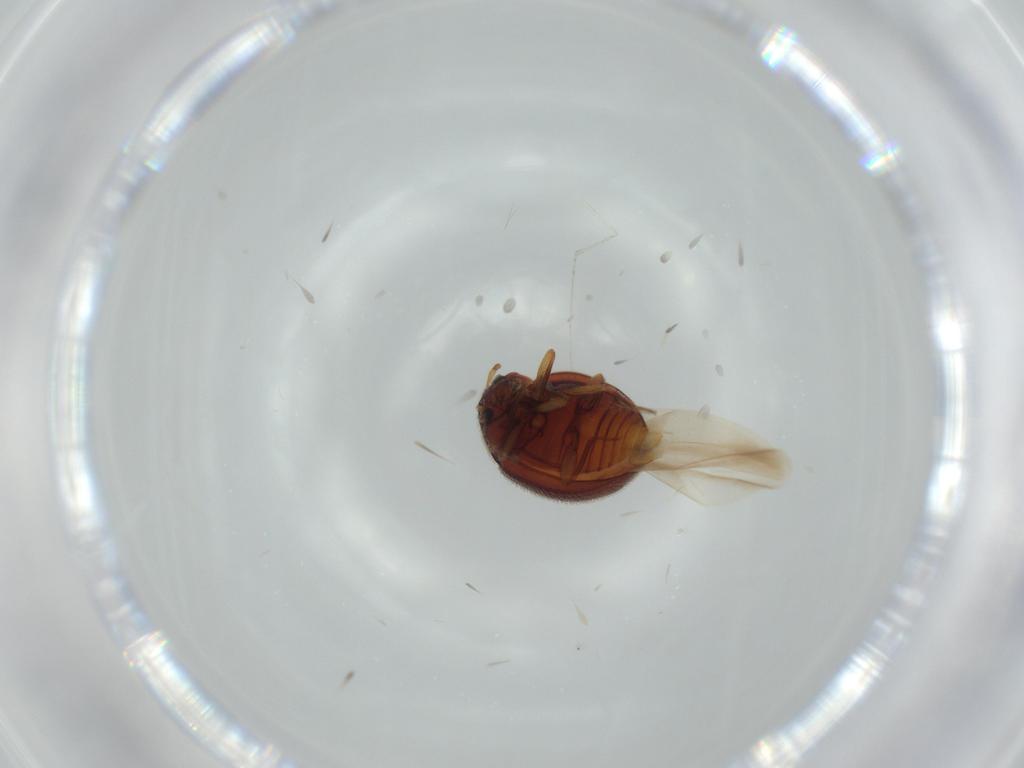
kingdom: Animalia
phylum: Arthropoda
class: Insecta
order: Coleoptera
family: Anamorphidae
